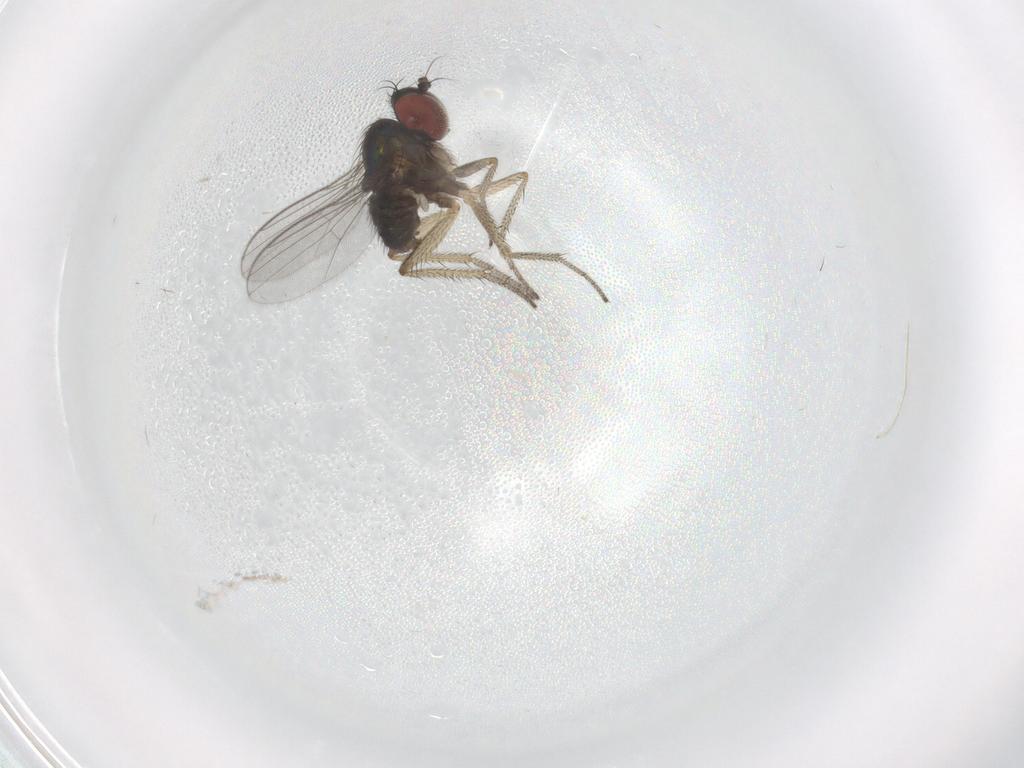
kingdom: Animalia
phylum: Arthropoda
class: Insecta
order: Diptera
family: Dolichopodidae
